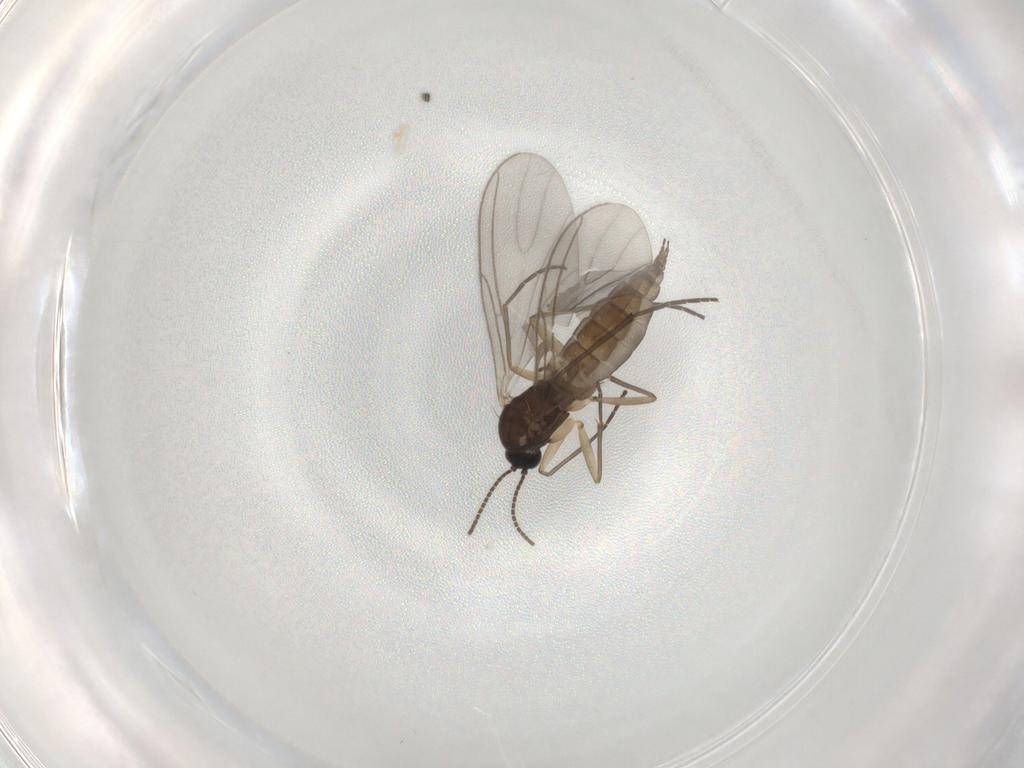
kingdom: Animalia
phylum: Arthropoda
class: Insecta
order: Diptera
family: Sciaridae
